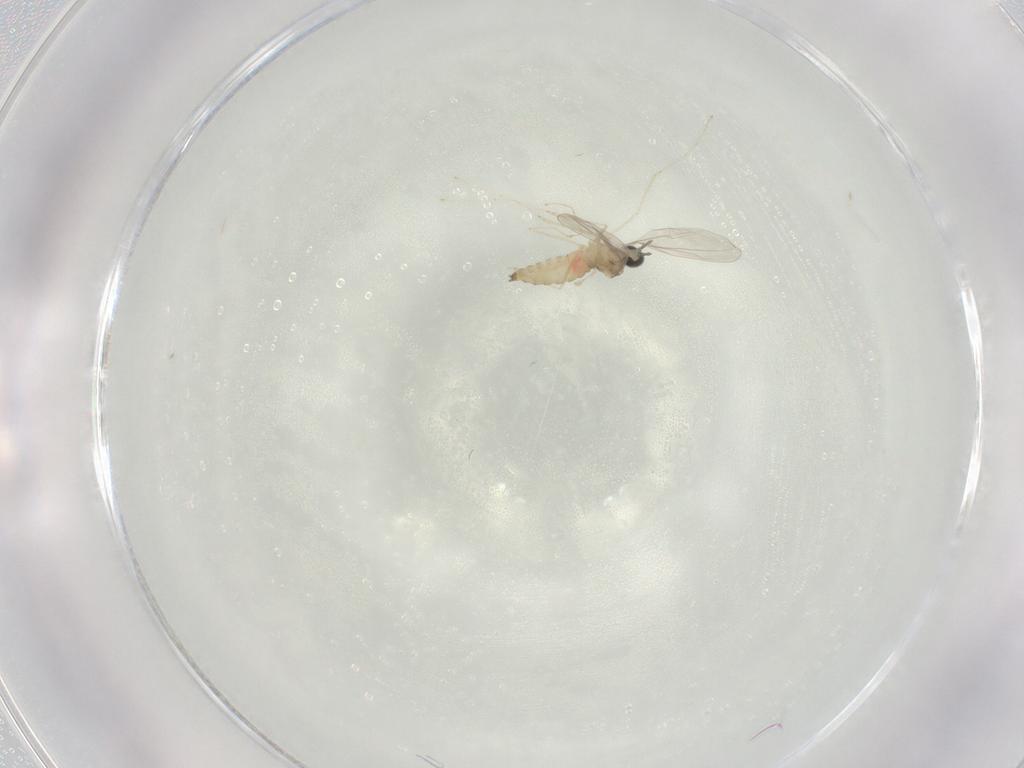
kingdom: Animalia
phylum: Arthropoda
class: Insecta
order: Diptera
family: Cecidomyiidae
